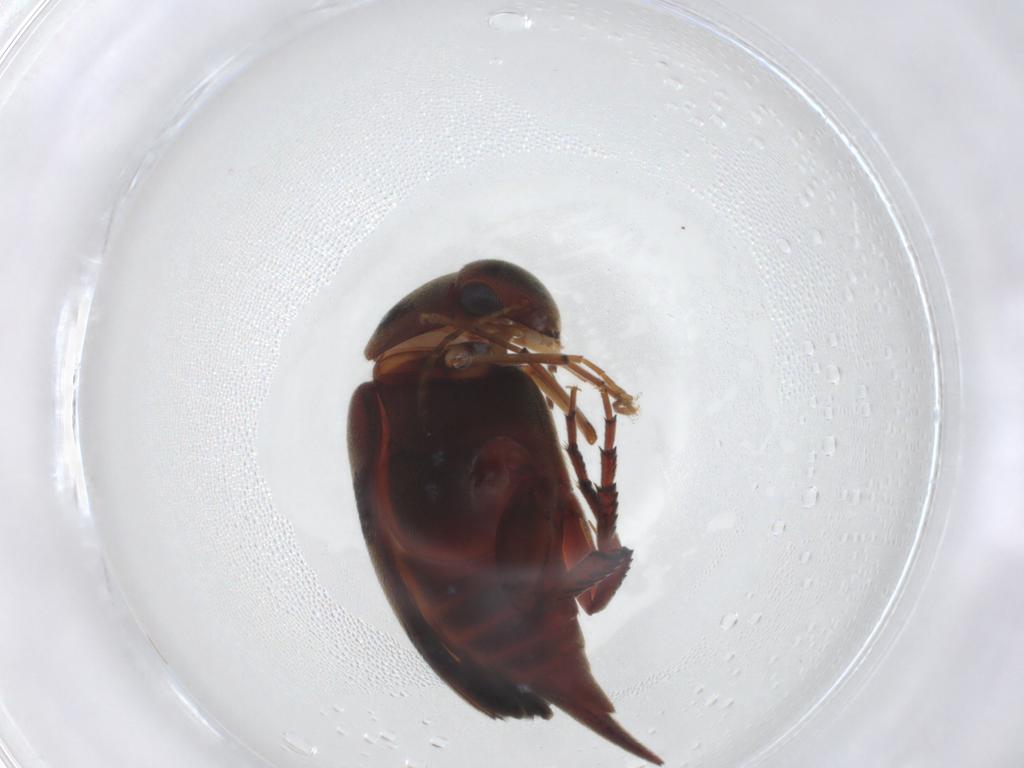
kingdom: Animalia
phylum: Arthropoda
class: Insecta
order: Coleoptera
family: Mordellidae
